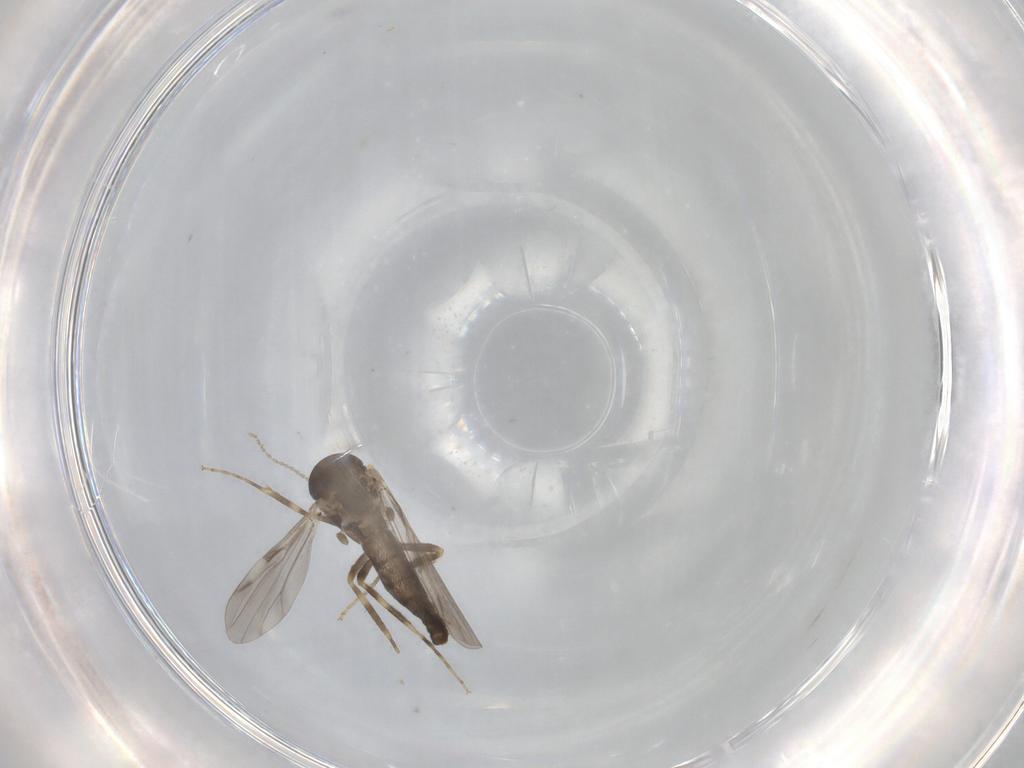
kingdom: Animalia
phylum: Arthropoda
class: Insecta
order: Diptera
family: Ceratopogonidae
